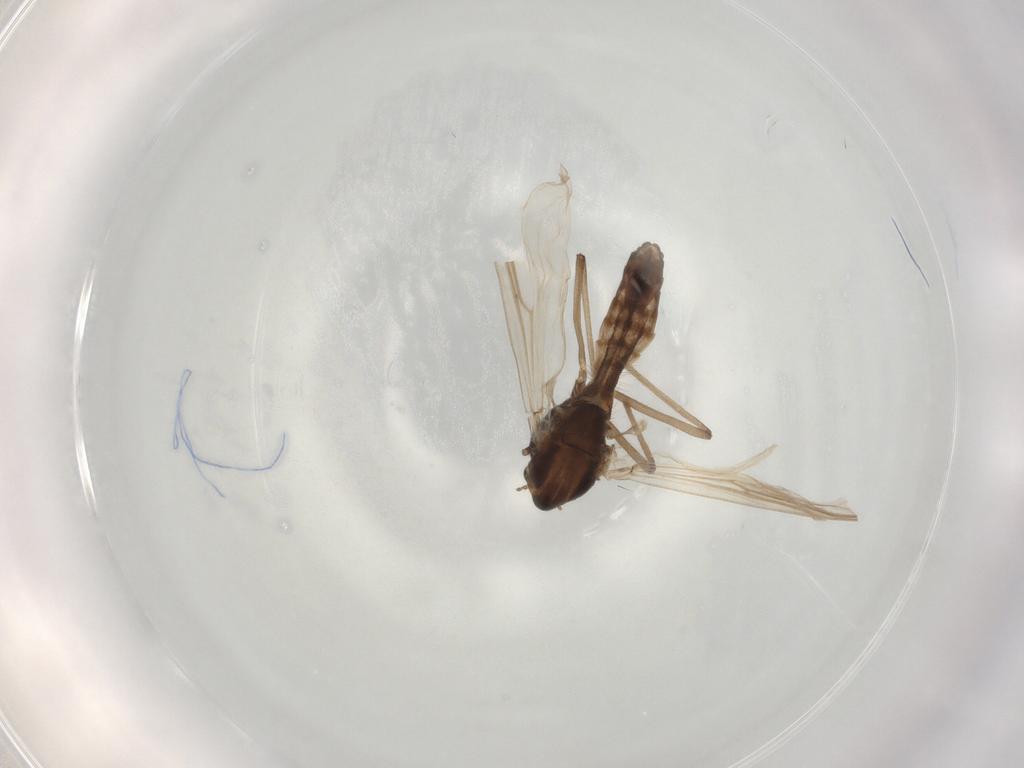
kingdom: Animalia
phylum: Arthropoda
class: Insecta
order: Diptera
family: Chironomidae
